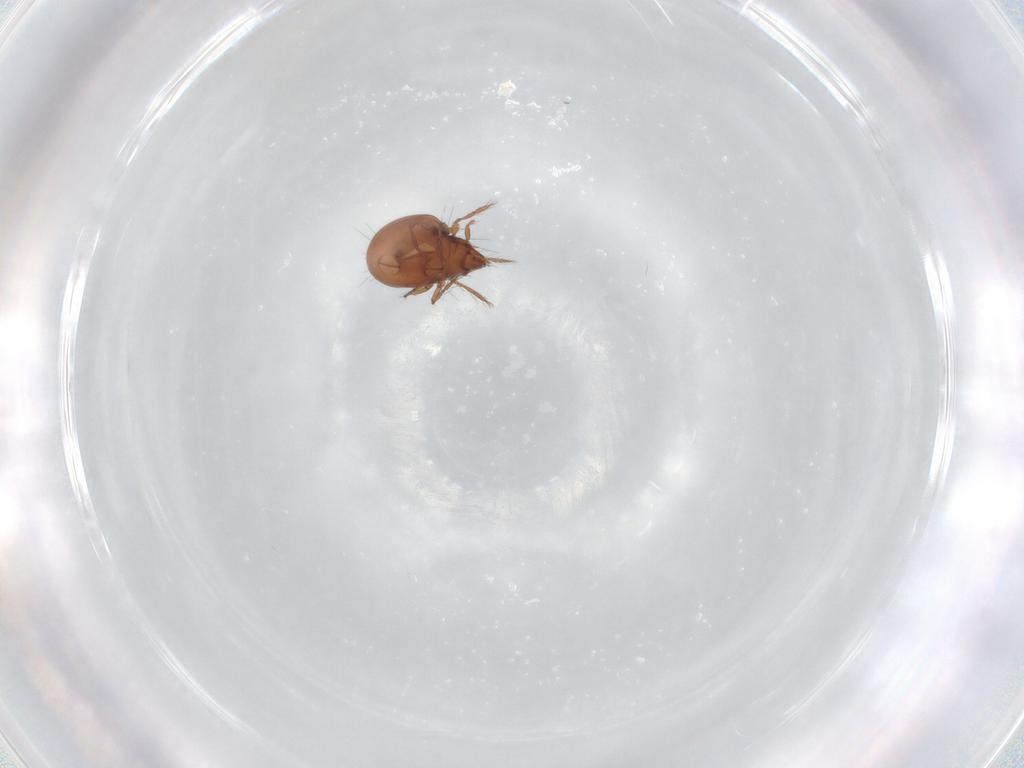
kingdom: Animalia
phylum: Arthropoda
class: Arachnida
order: Sarcoptiformes
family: Ceratoppiidae
